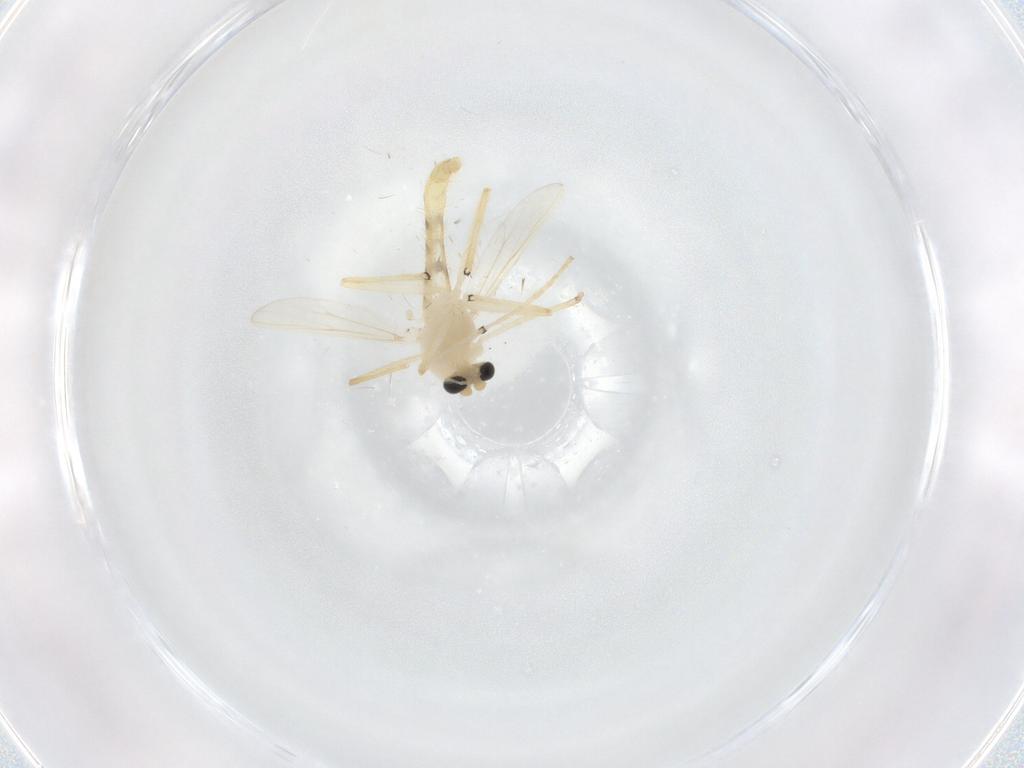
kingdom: Animalia
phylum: Arthropoda
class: Insecta
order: Diptera
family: Chironomidae
